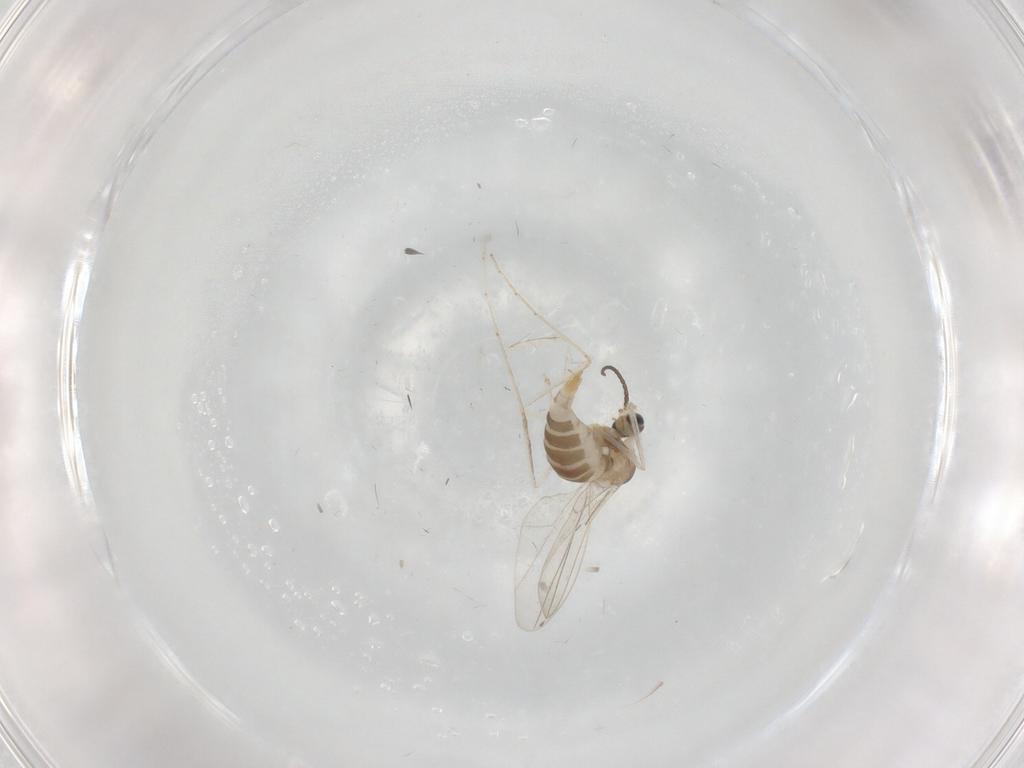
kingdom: Animalia
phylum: Arthropoda
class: Insecta
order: Diptera
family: Cecidomyiidae
